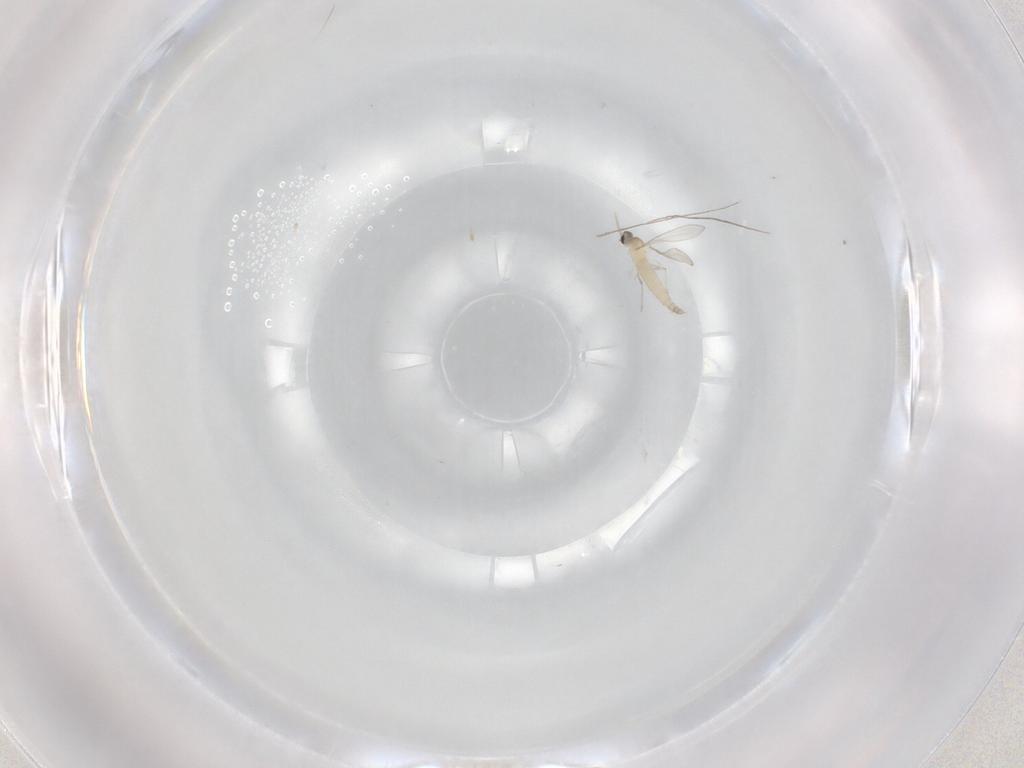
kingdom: Animalia
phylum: Arthropoda
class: Insecta
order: Diptera
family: Cecidomyiidae
